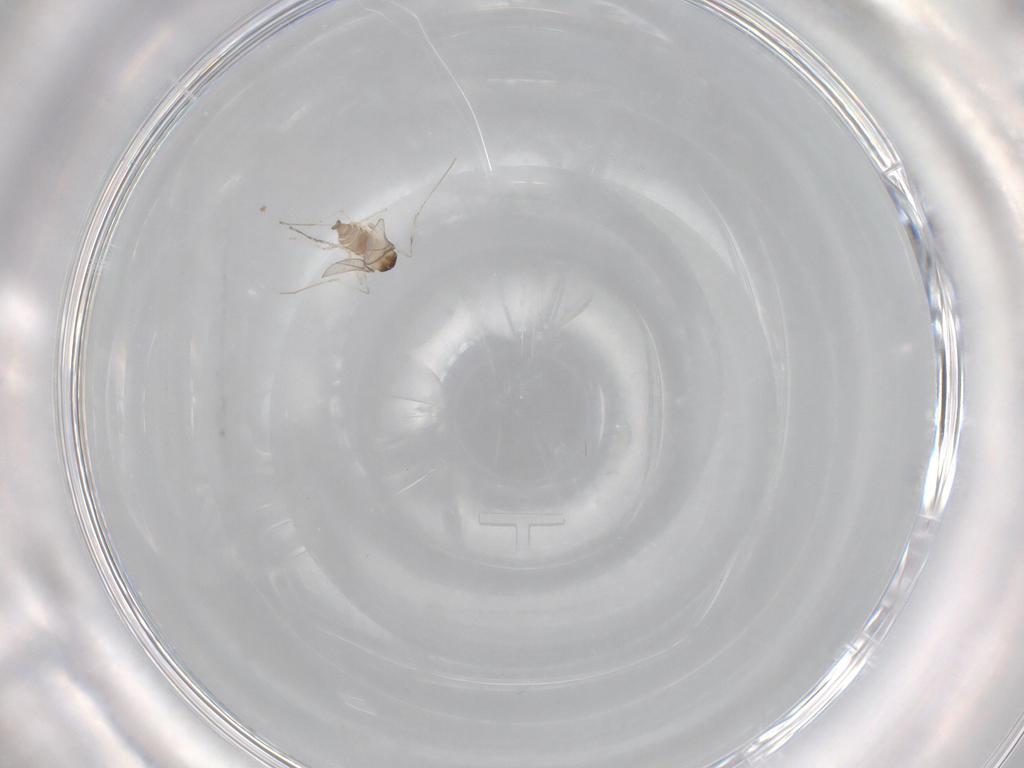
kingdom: Animalia
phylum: Arthropoda
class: Insecta
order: Diptera
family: Cecidomyiidae
